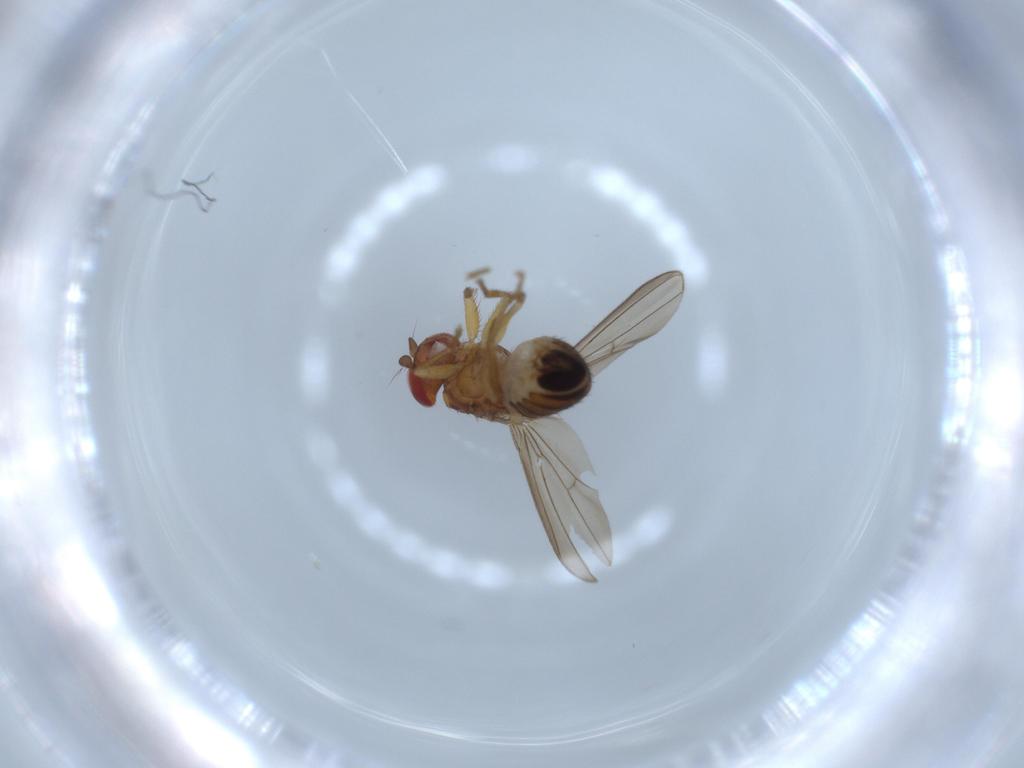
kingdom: Animalia
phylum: Arthropoda
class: Insecta
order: Diptera
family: Drosophilidae
